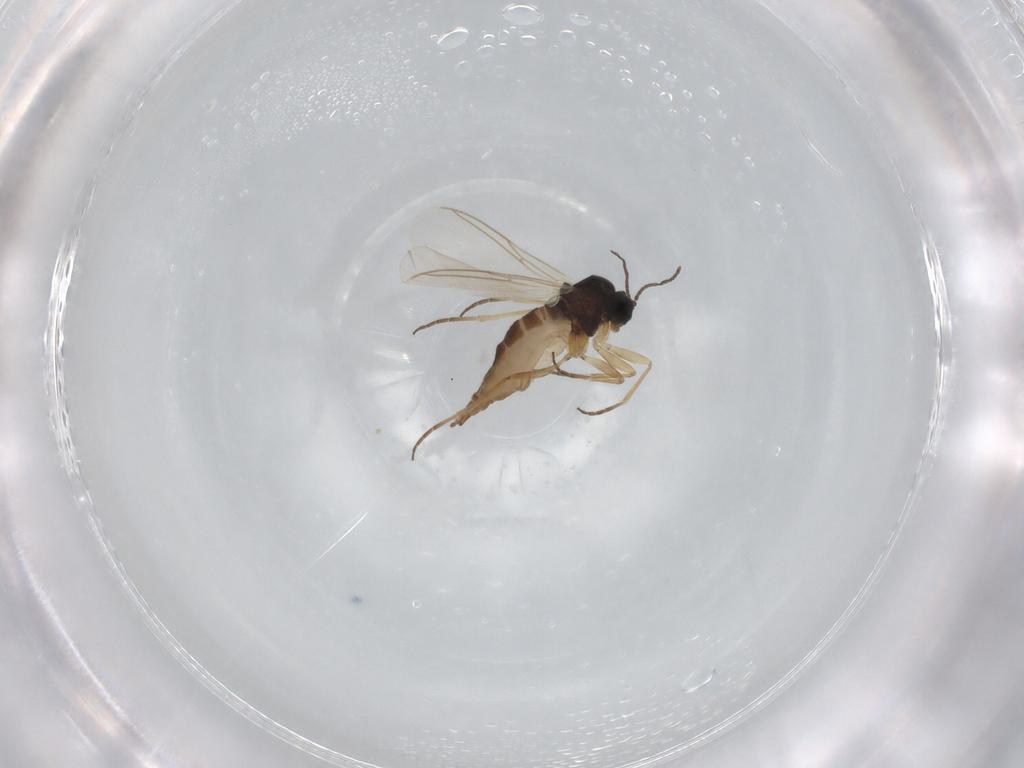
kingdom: Animalia
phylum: Arthropoda
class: Insecta
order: Diptera
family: Sciaridae
